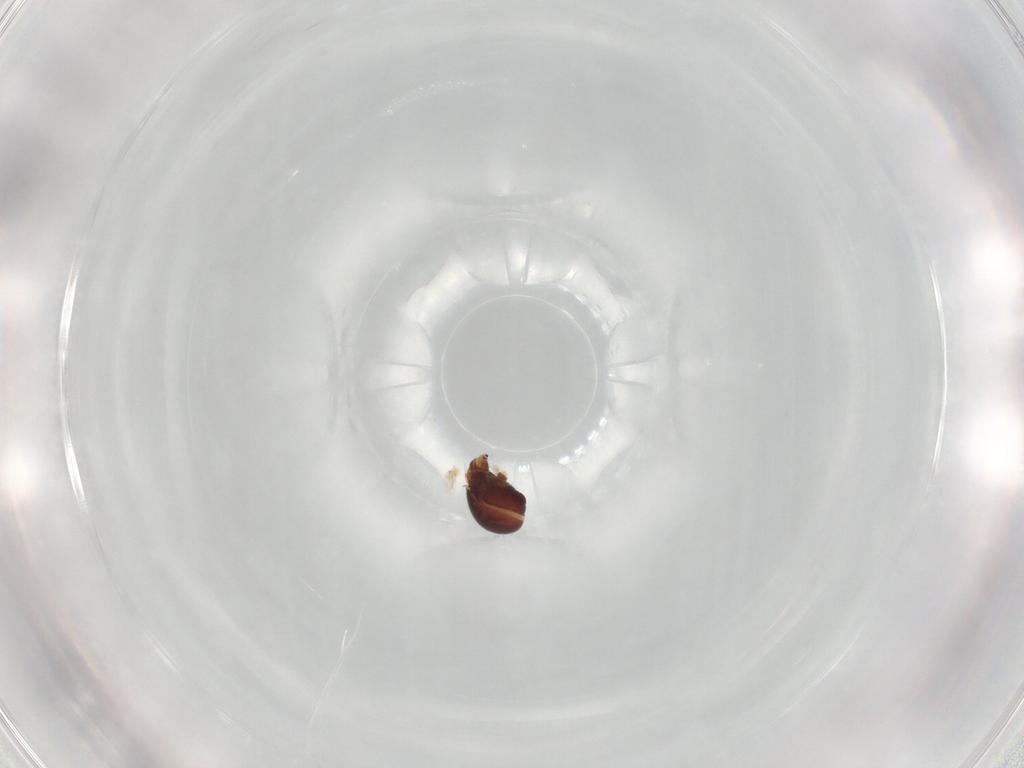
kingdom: Animalia
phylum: Arthropoda
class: Arachnida
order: Sarcoptiformes
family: Ceratozetidae
